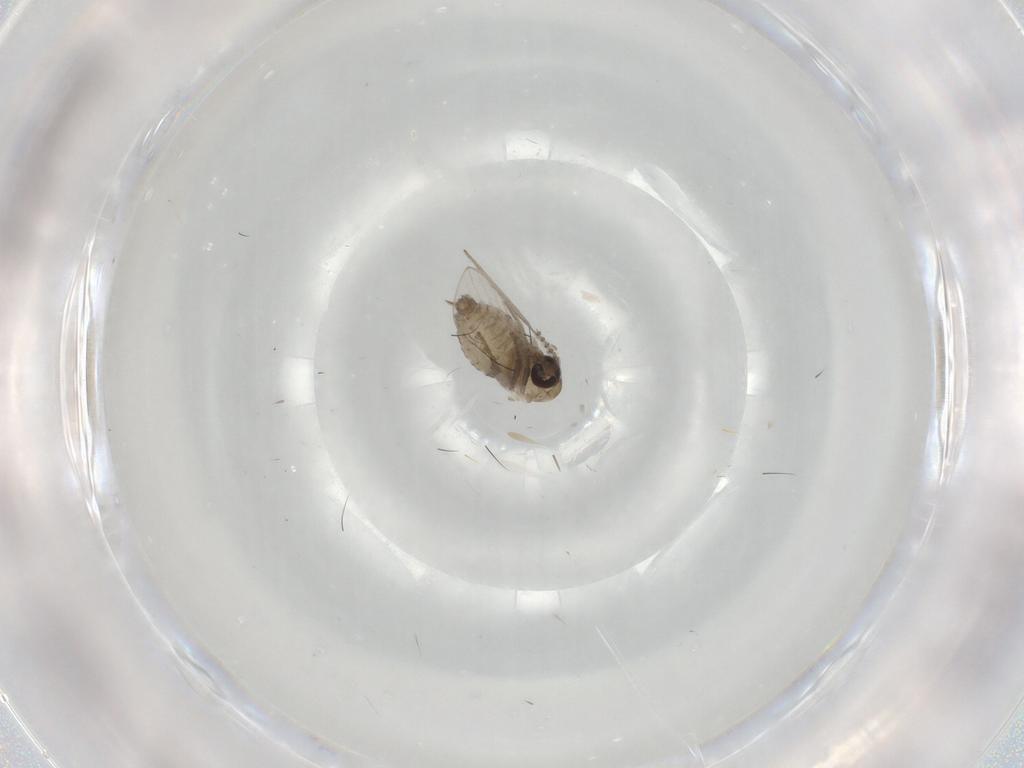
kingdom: Animalia
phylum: Arthropoda
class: Insecta
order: Diptera
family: Psychodidae
